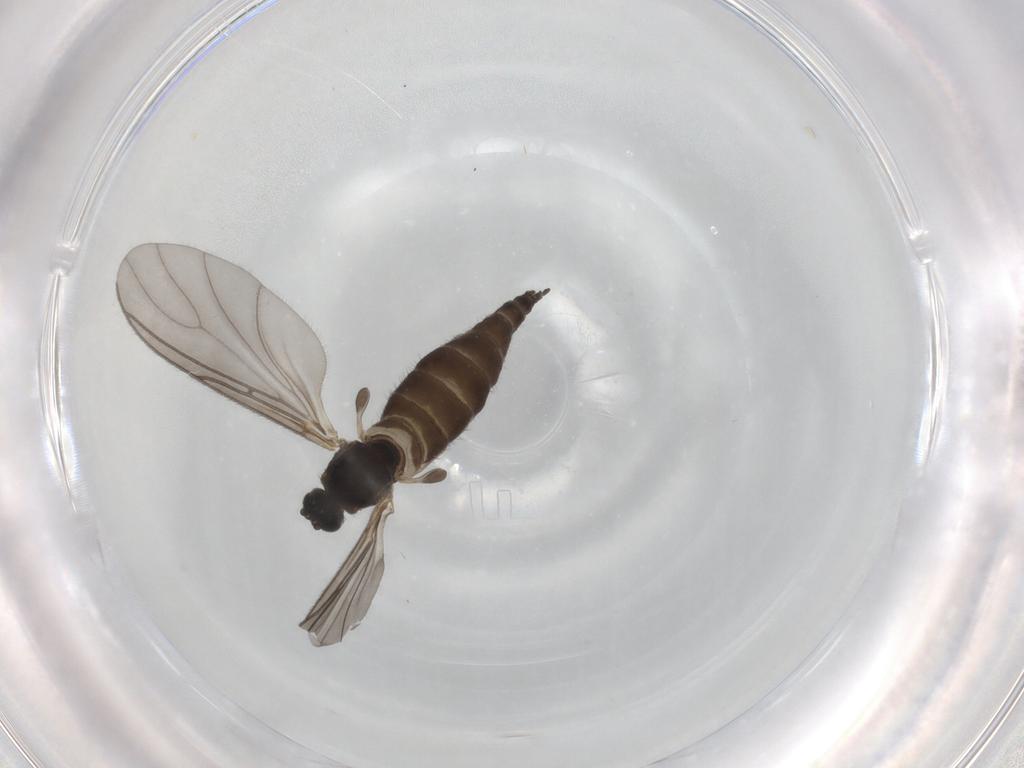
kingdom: Animalia
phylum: Arthropoda
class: Insecta
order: Diptera
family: Sciaridae
